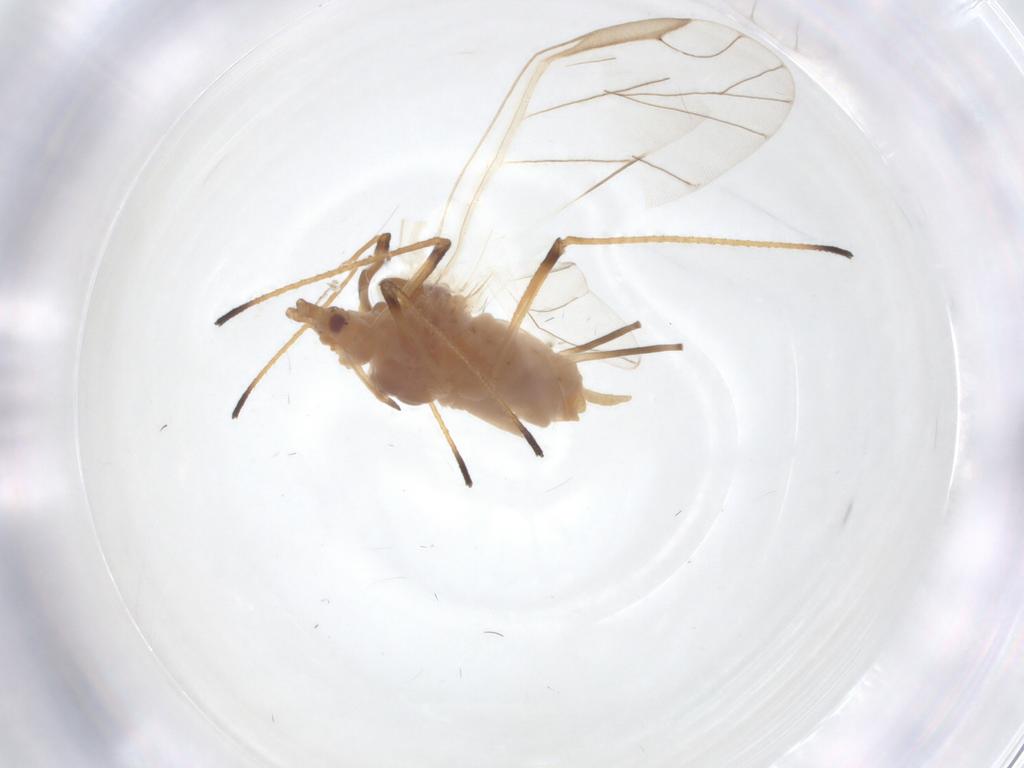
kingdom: Animalia
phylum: Arthropoda
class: Insecta
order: Hemiptera
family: Aphididae
